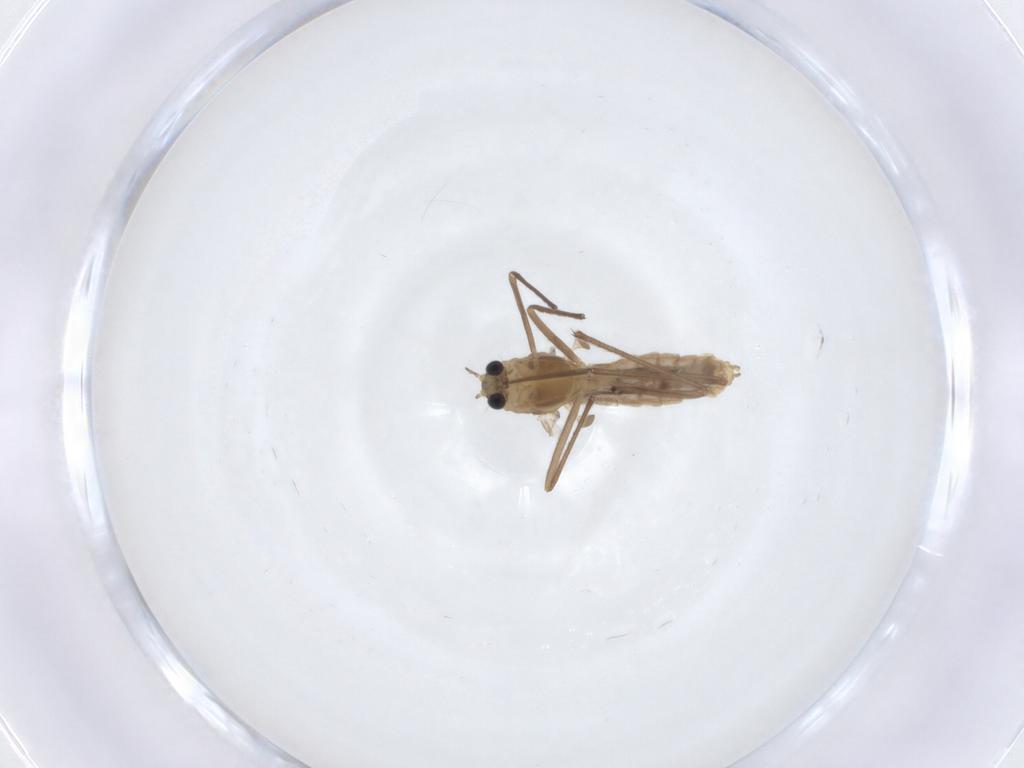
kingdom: Animalia
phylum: Arthropoda
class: Insecta
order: Diptera
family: Chironomidae
